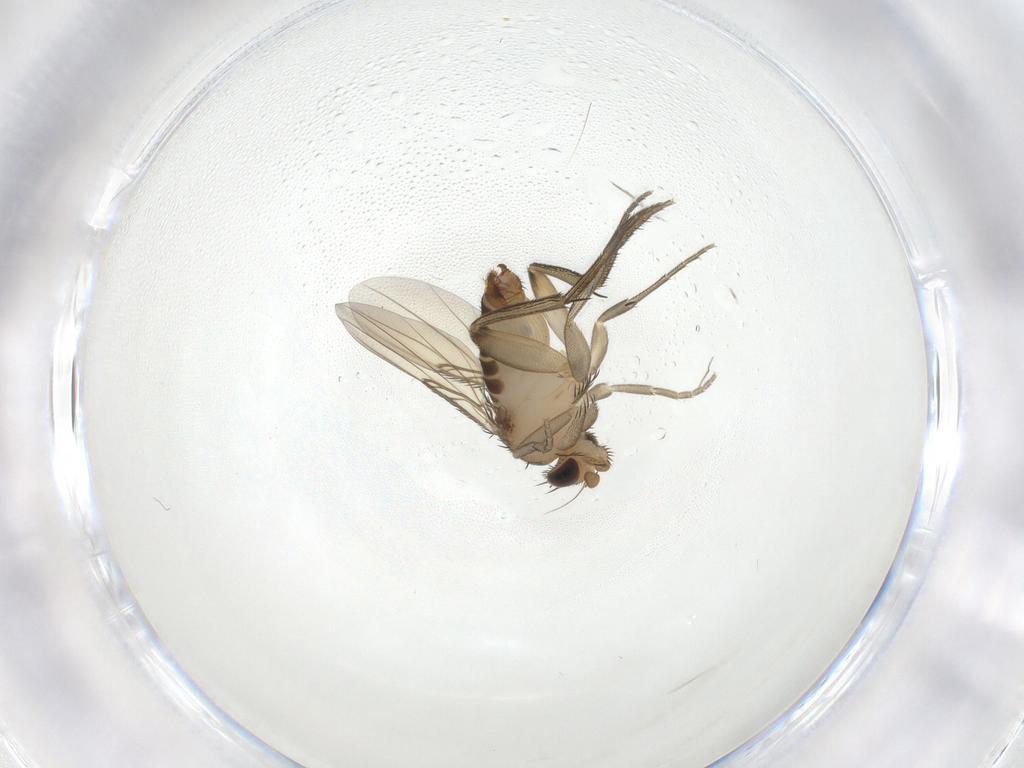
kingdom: Animalia
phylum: Arthropoda
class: Insecta
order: Diptera
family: Phoridae
